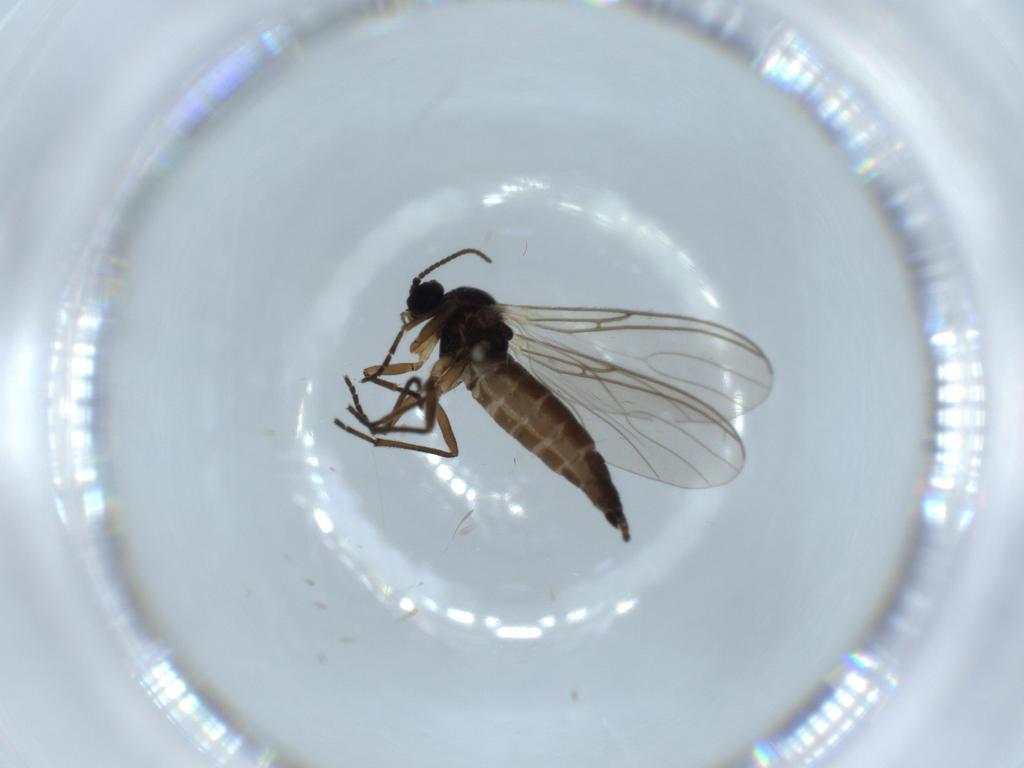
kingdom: Animalia
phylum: Arthropoda
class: Insecta
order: Diptera
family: Sciaridae
